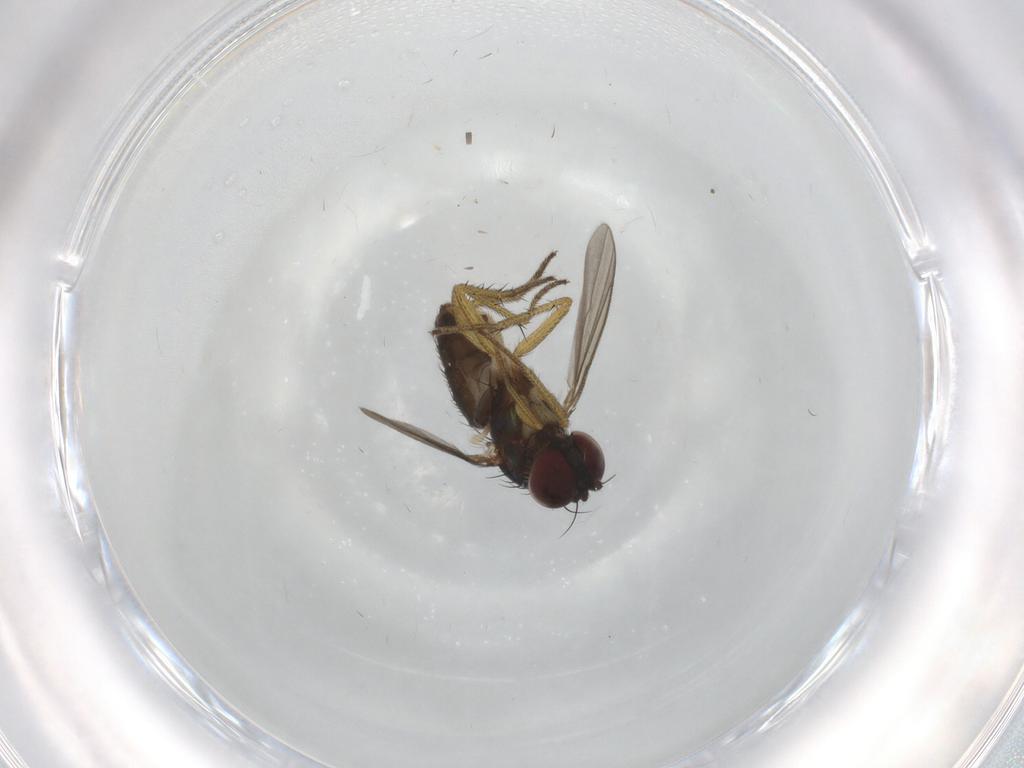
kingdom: Animalia
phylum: Arthropoda
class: Insecta
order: Diptera
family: Dolichopodidae
